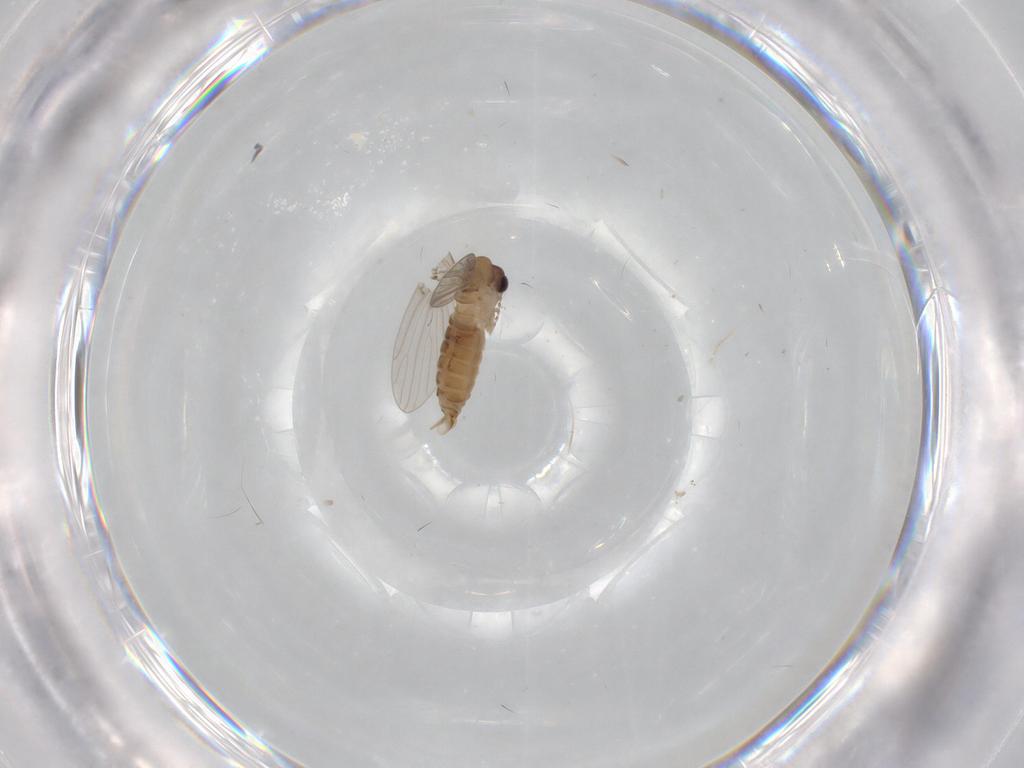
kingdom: Animalia
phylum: Arthropoda
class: Insecta
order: Diptera
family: Psychodidae
